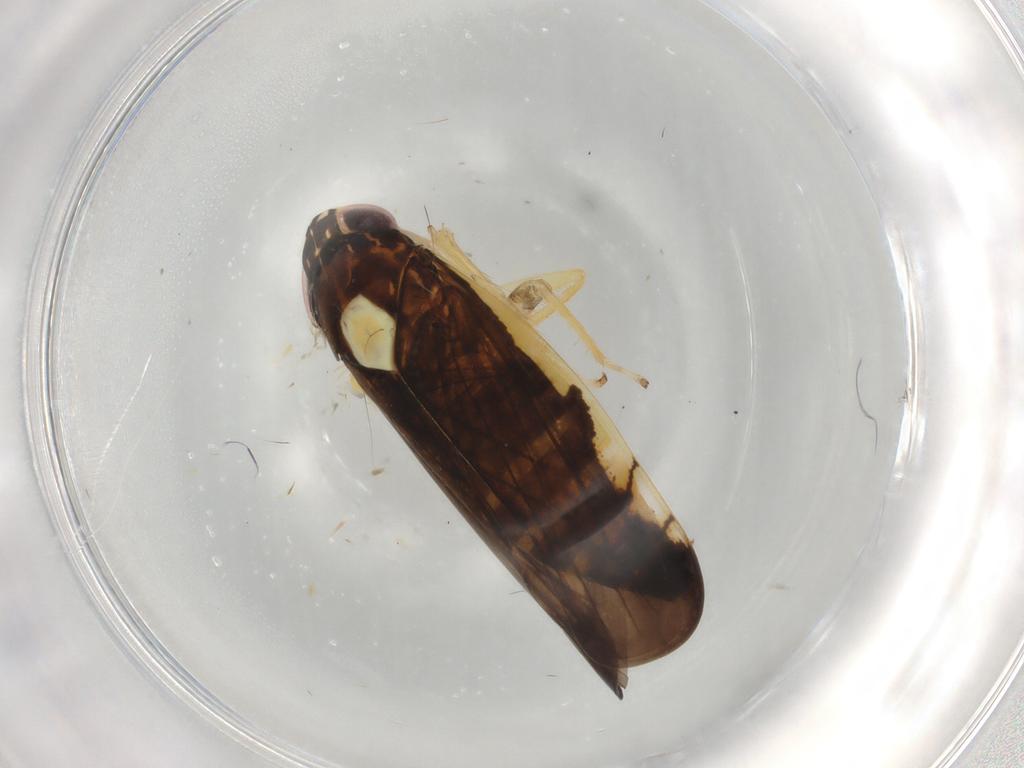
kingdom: Animalia
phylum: Arthropoda
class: Insecta
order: Hemiptera
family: Cicadellidae
